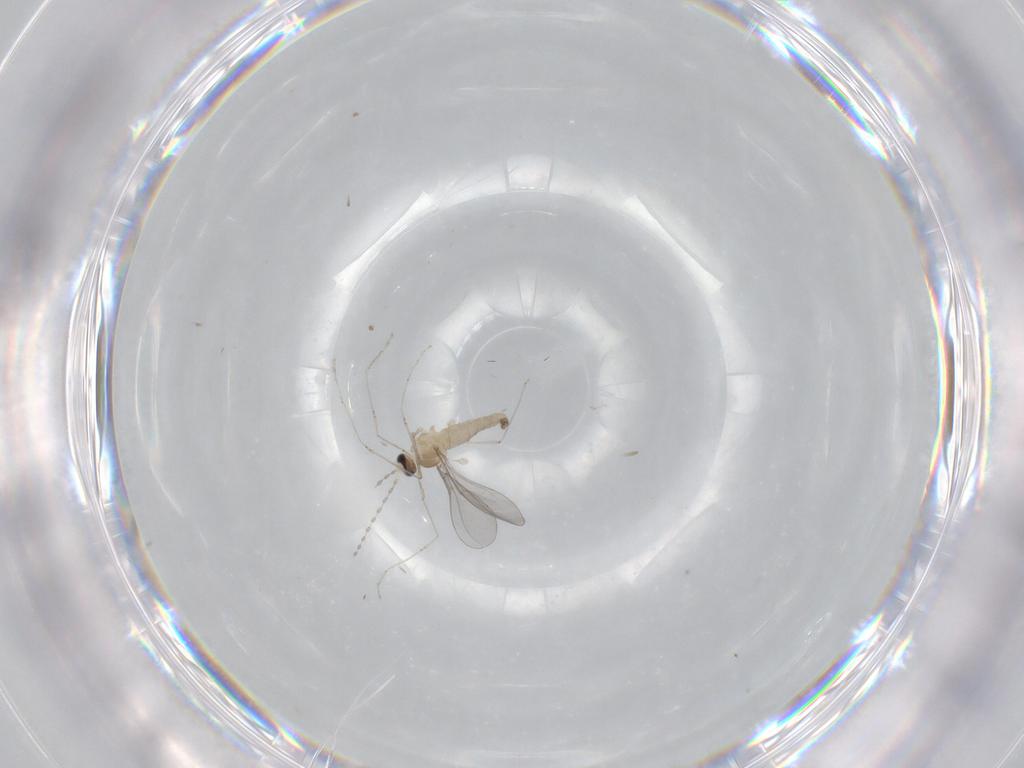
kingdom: Animalia
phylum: Arthropoda
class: Insecta
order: Diptera
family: Cecidomyiidae
